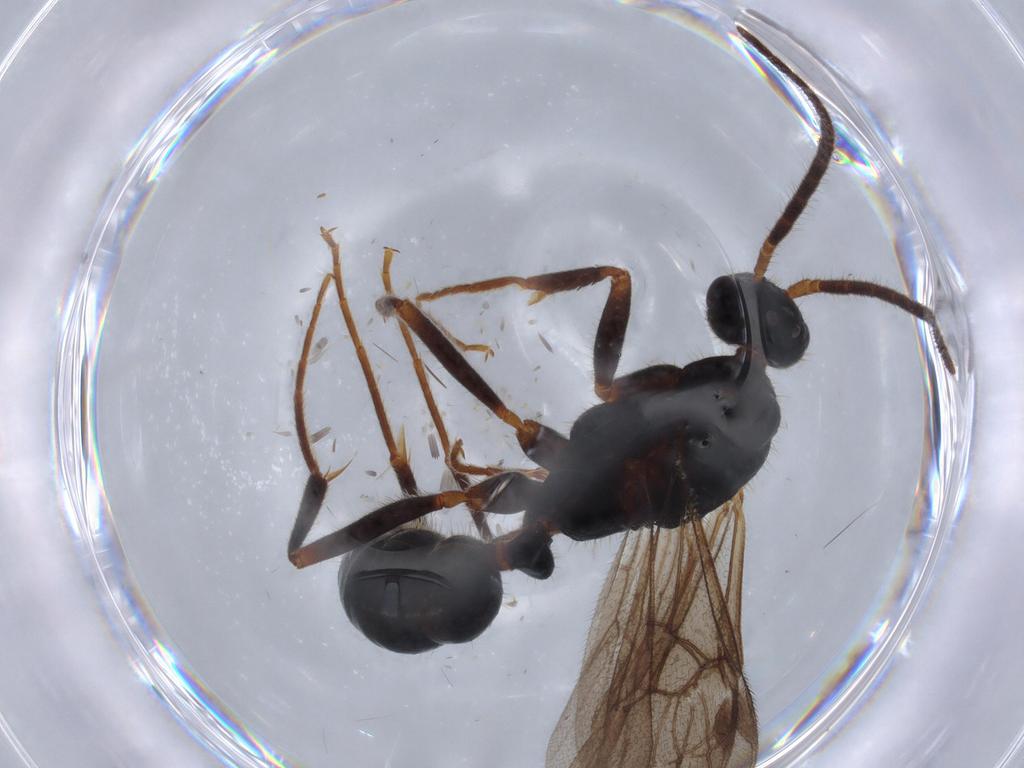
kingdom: Animalia
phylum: Arthropoda
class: Insecta
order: Hymenoptera
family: Formicidae
